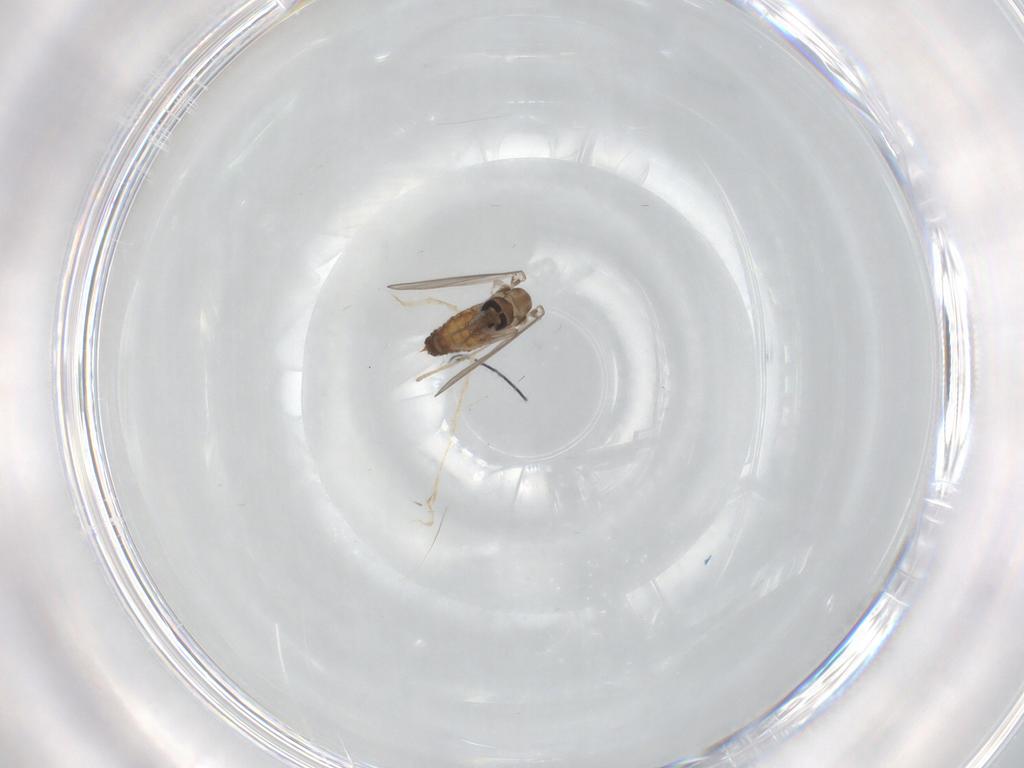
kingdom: Animalia
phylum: Arthropoda
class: Insecta
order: Diptera
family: Psychodidae
